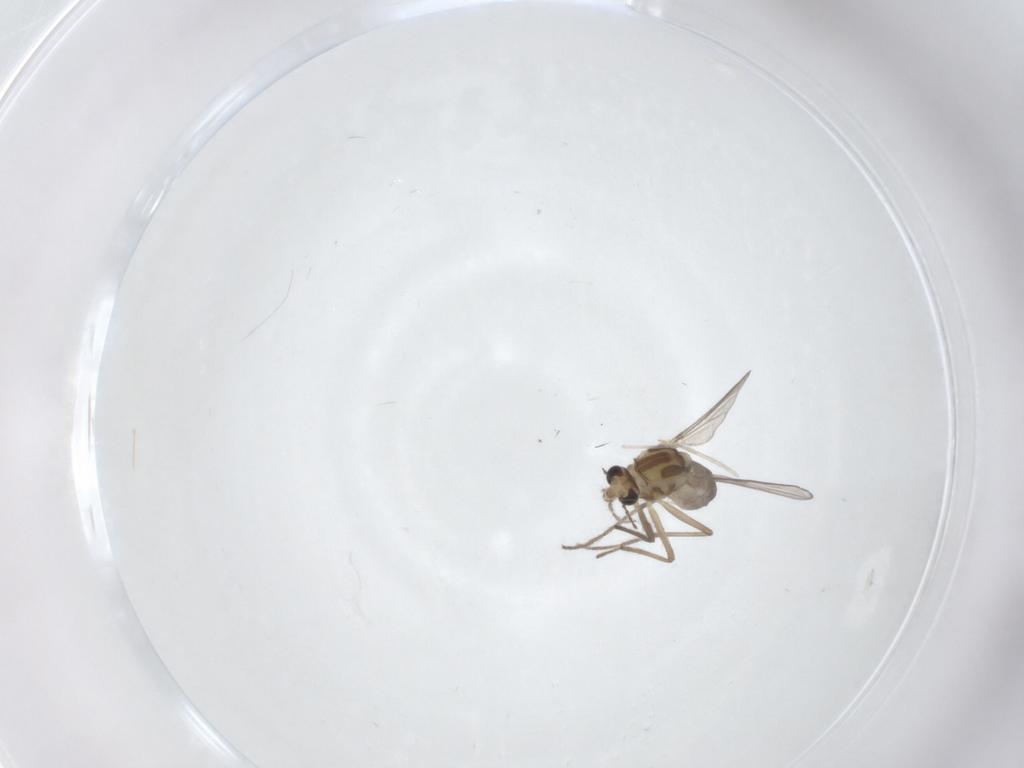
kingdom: Animalia
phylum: Arthropoda
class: Insecta
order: Diptera
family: Chironomidae
